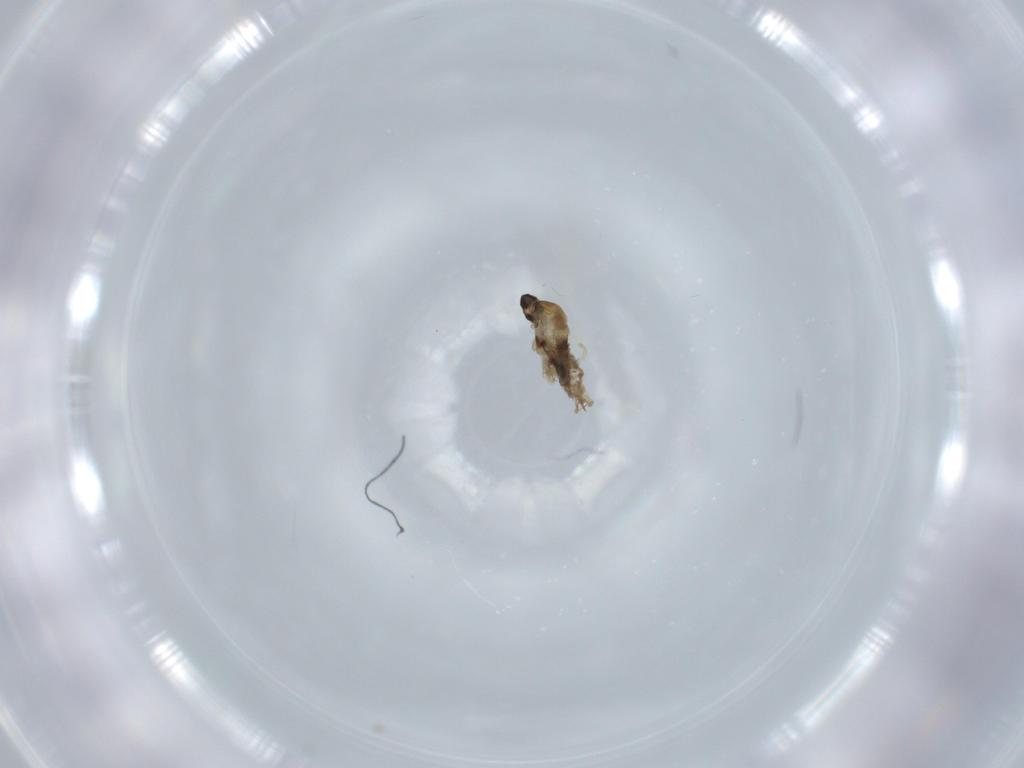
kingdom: Animalia
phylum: Arthropoda
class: Insecta
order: Diptera
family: Cecidomyiidae
